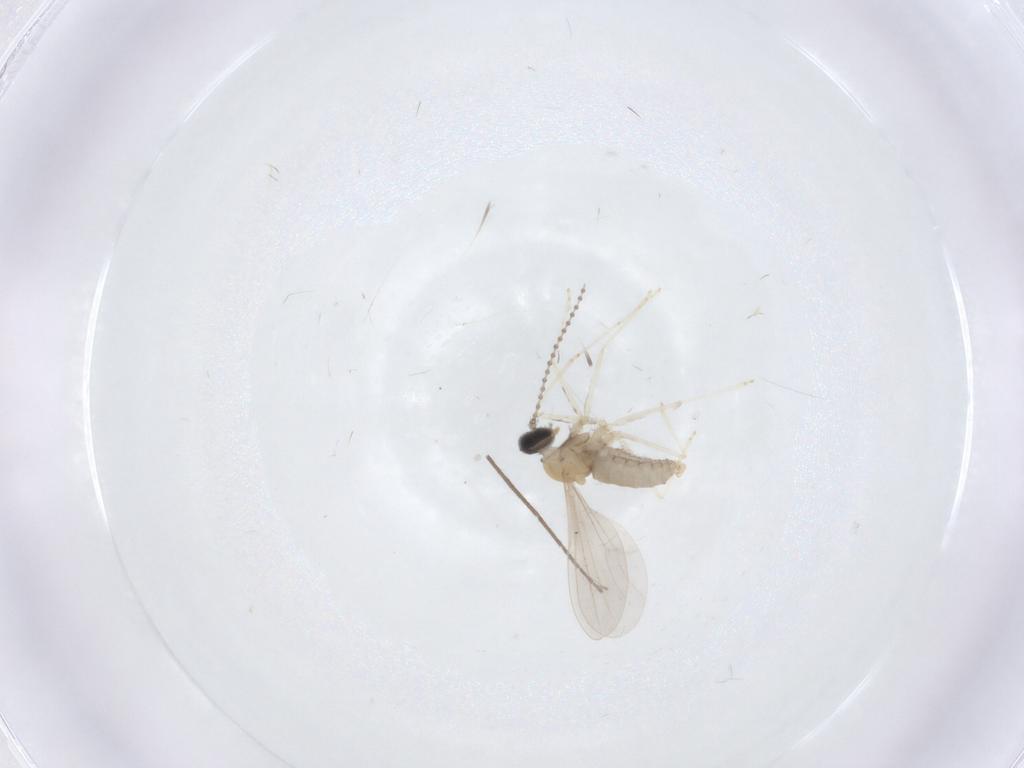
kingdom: Animalia
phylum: Arthropoda
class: Insecta
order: Diptera
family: Cecidomyiidae
